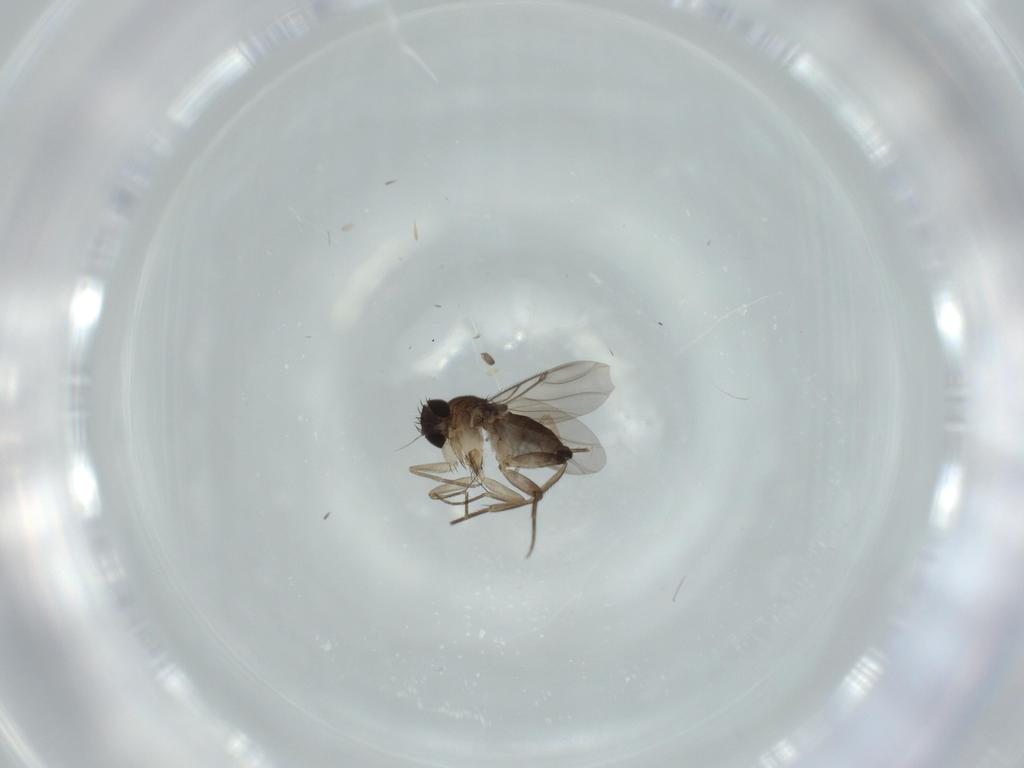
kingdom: Animalia
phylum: Arthropoda
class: Insecta
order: Diptera
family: Phoridae
